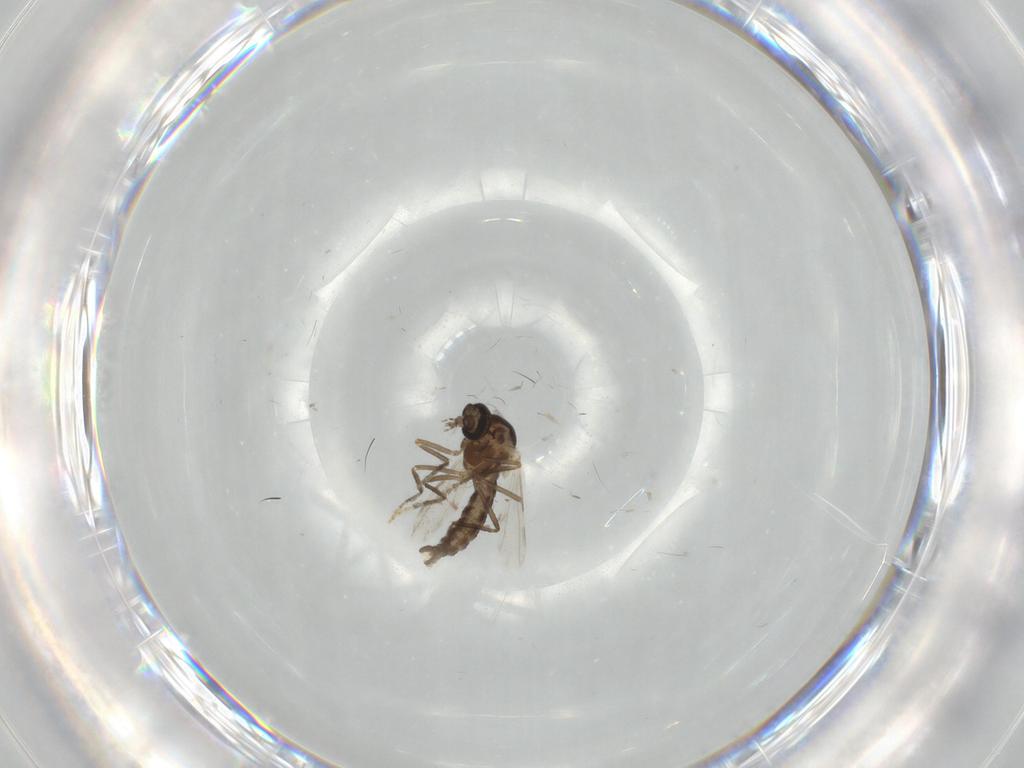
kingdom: Animalia
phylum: Arthropoda
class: Insecta
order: Diptera
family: Ceratopogonidae
